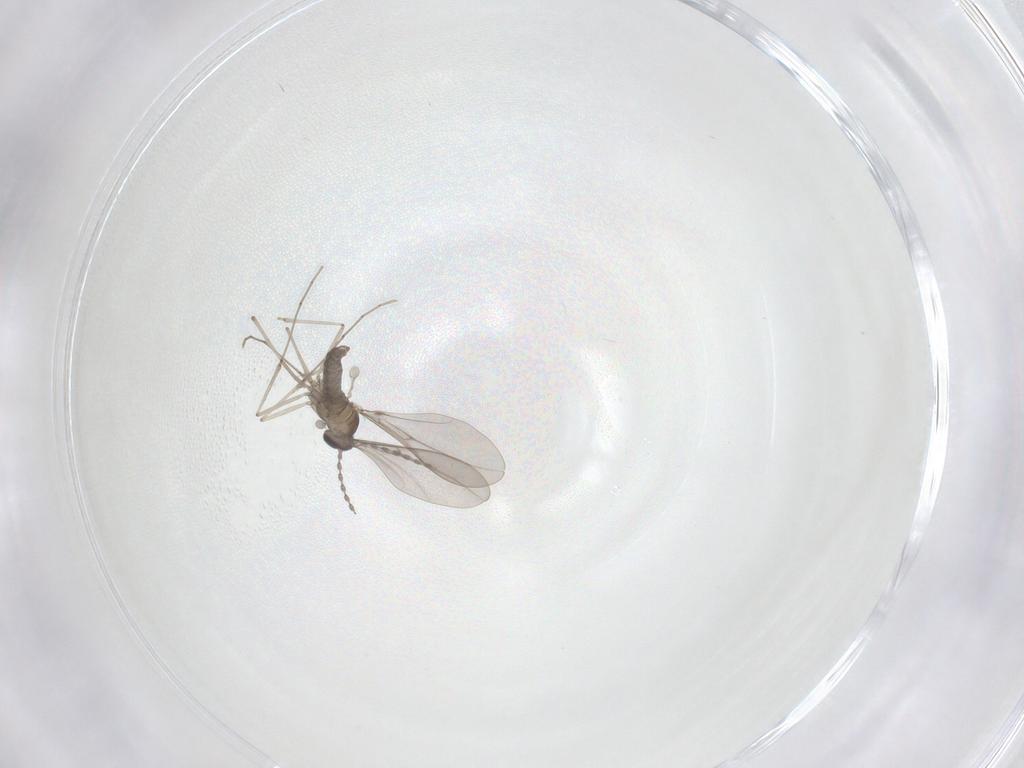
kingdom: Animalia
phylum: Arthropoda
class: Insecta
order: Diptera
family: Cecidomyiidae
